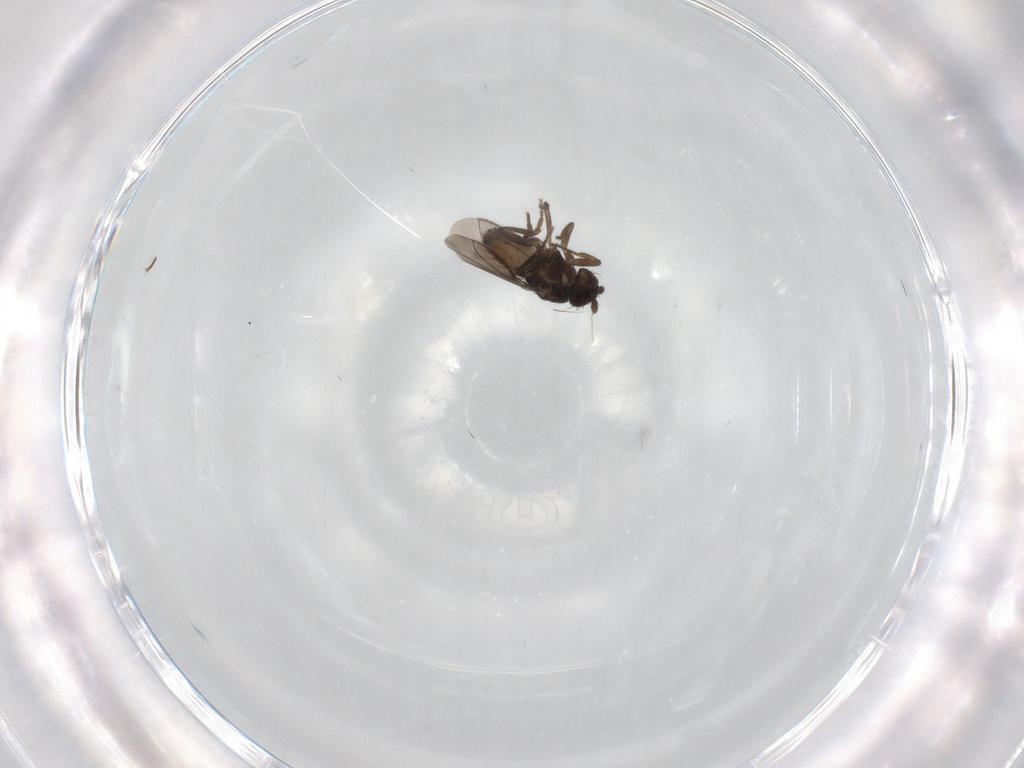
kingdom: Animalia
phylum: Arthropoda
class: Insecta
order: Diptera
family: Sphaeroceridae
